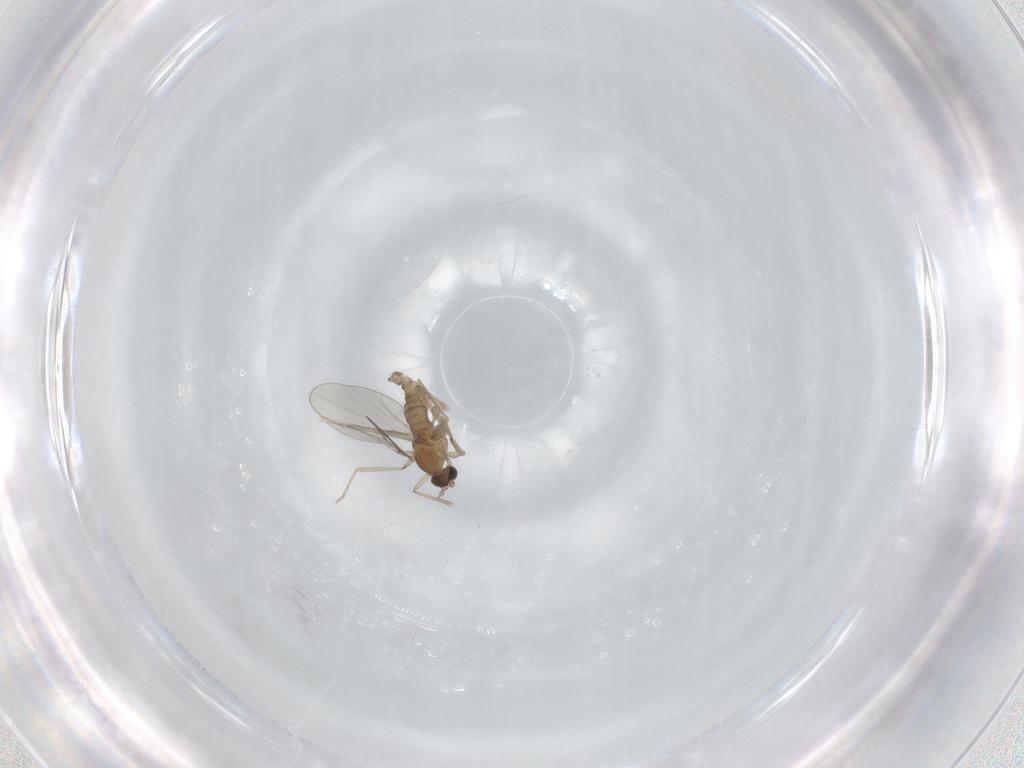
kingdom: Animalia
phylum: Arthropoda
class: Insecta
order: Diptera
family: Cecidomyiidae
